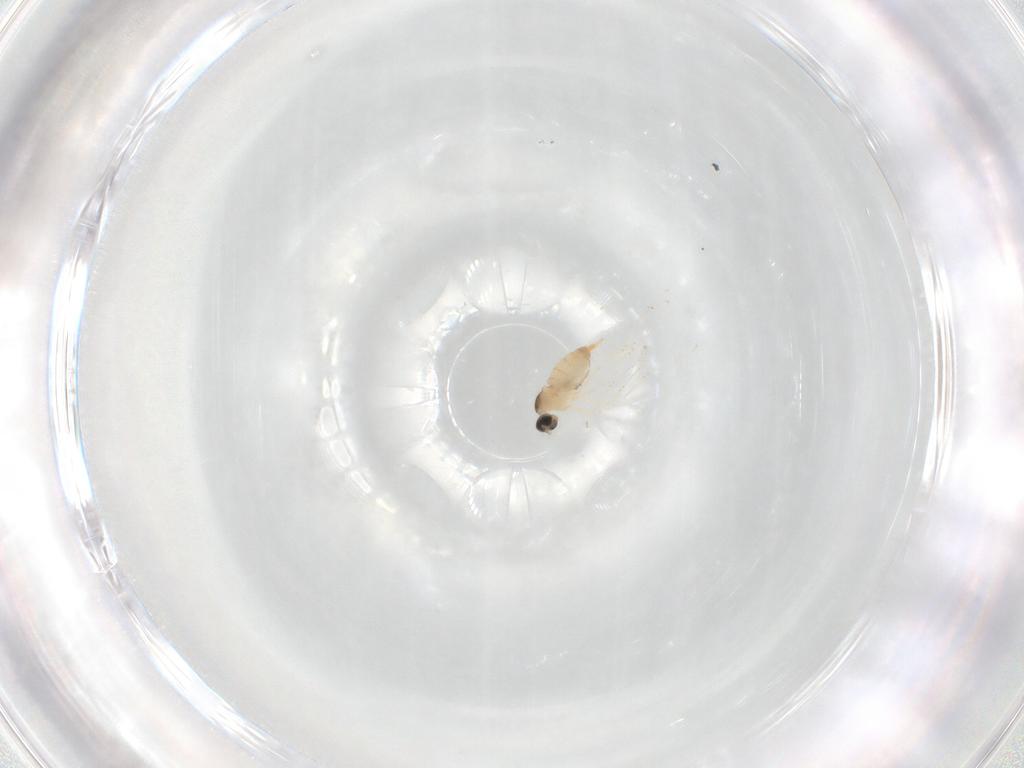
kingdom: Animalia
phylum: Arthropoda
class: Insecta
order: Diptera
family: Cecidomyiidae
